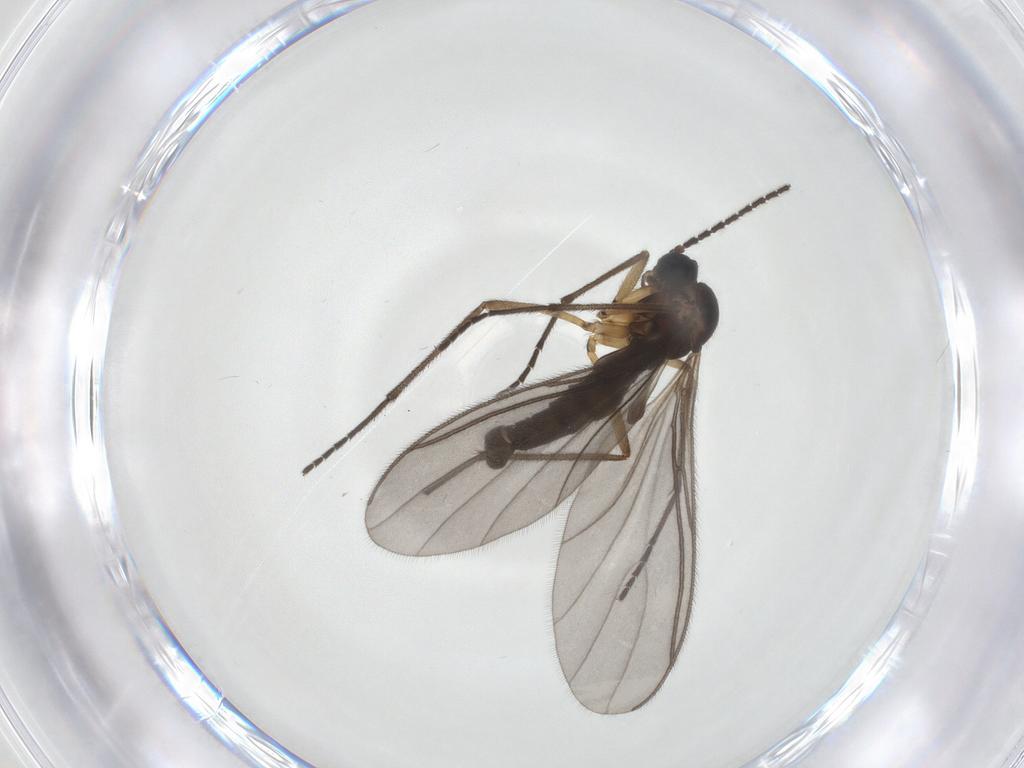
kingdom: Animalia
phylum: Arthropoda
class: Insecta
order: Diptera
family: Sciaridae
